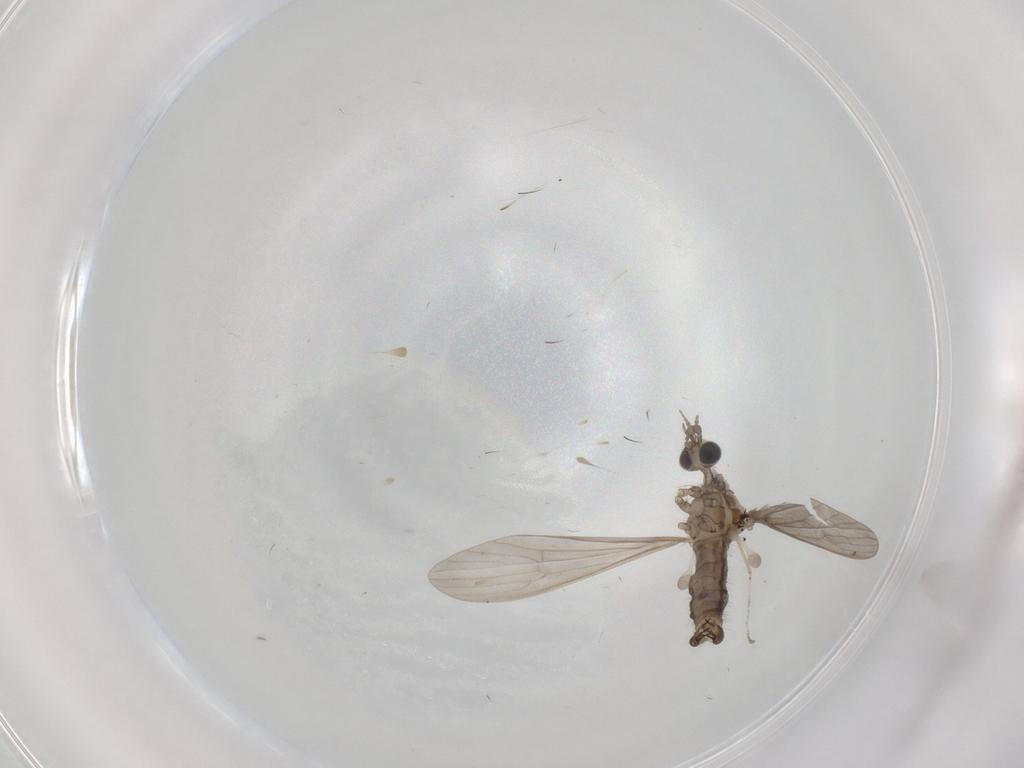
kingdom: Animalia
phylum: Arthropoda
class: Insecta
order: Diptera
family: Limoniidae
